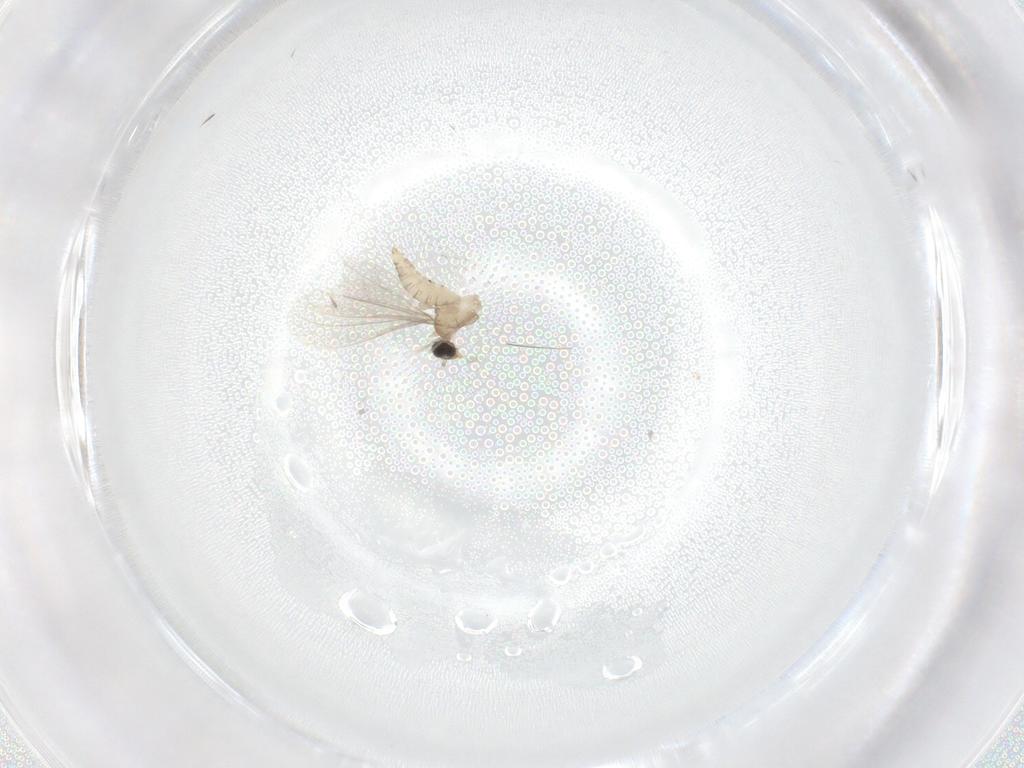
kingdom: Animalia
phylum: Arthropoda
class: Insecta
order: Diptera
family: Cecidomyiidae
